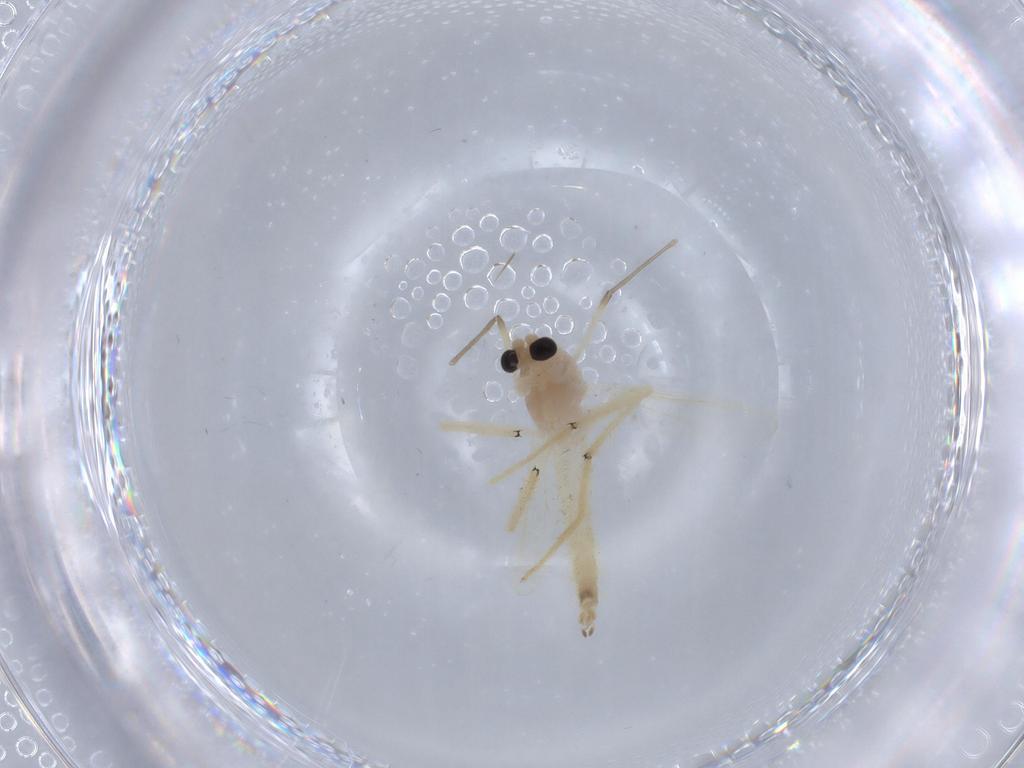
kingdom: Animalia
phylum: Arthropoda
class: Insecta
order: Diptera
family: Chironomidae
